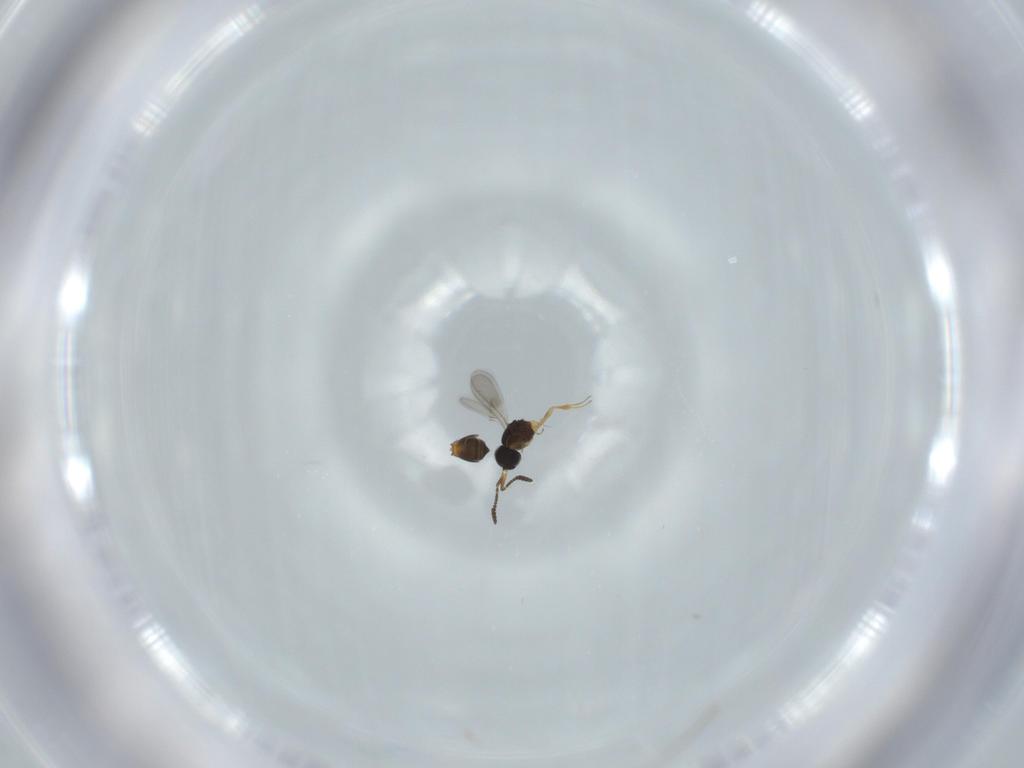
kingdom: Animalia
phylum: Arthropoda
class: Insecta
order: Hymenoptera
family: Scelionidae
